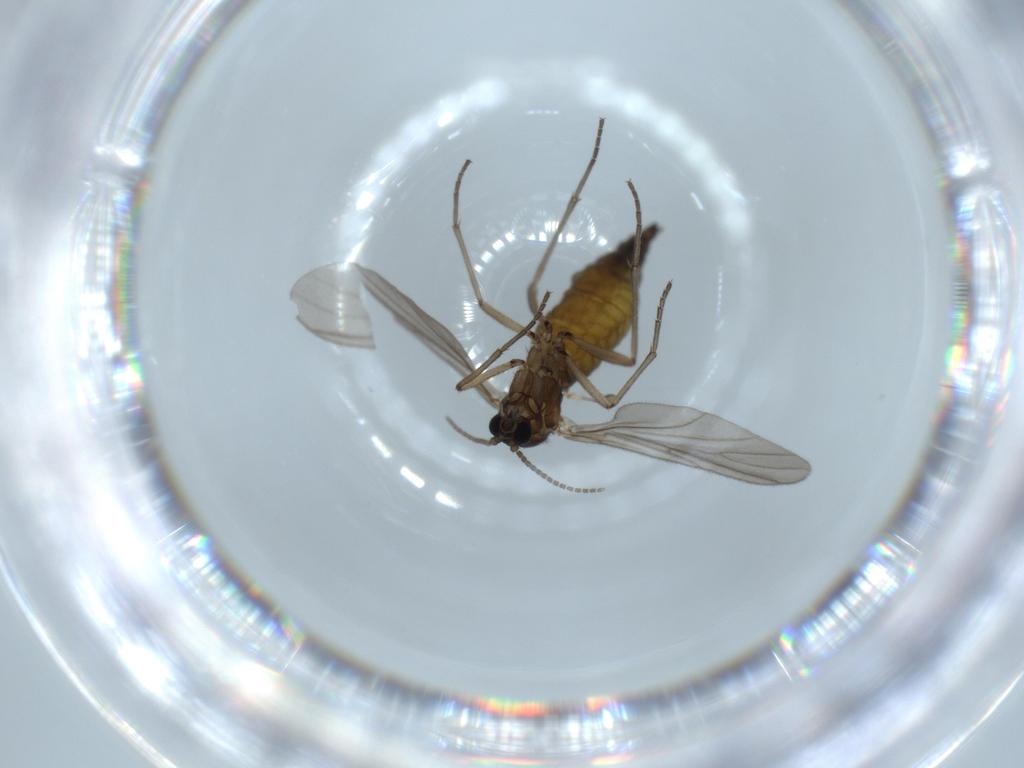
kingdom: Animalia
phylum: Arthropoda
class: Insecta
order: Diptera
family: Sciaridae
